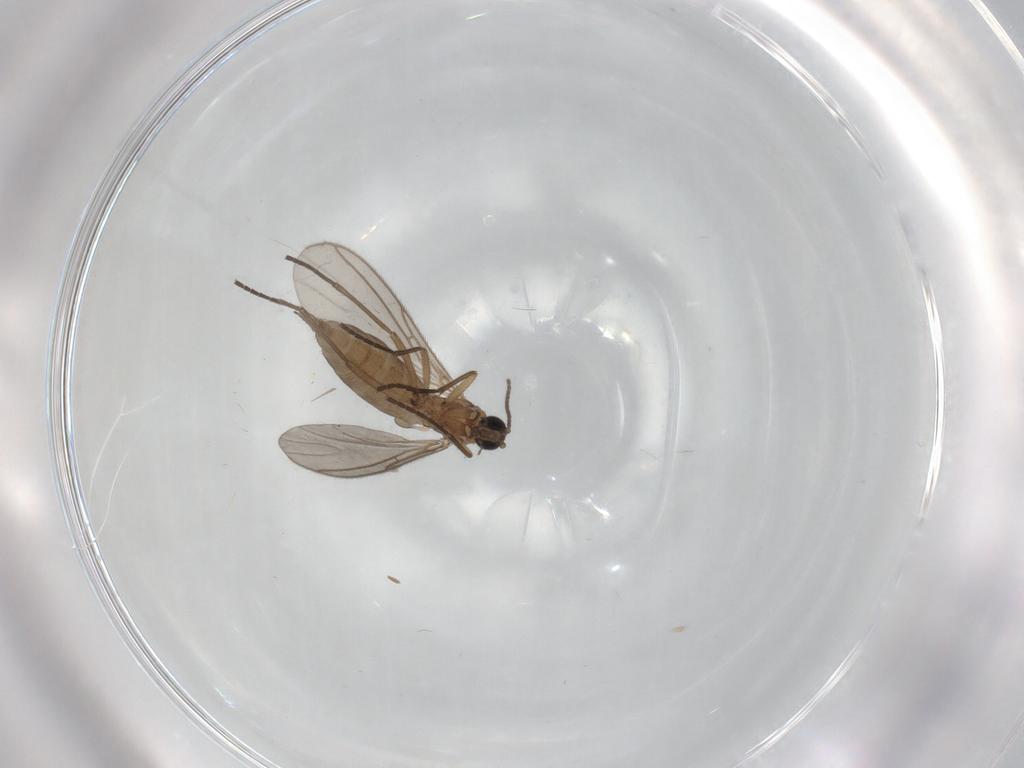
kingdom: Animalia
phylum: Arthropoda
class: Insecta
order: Diptera
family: Sciaridae
